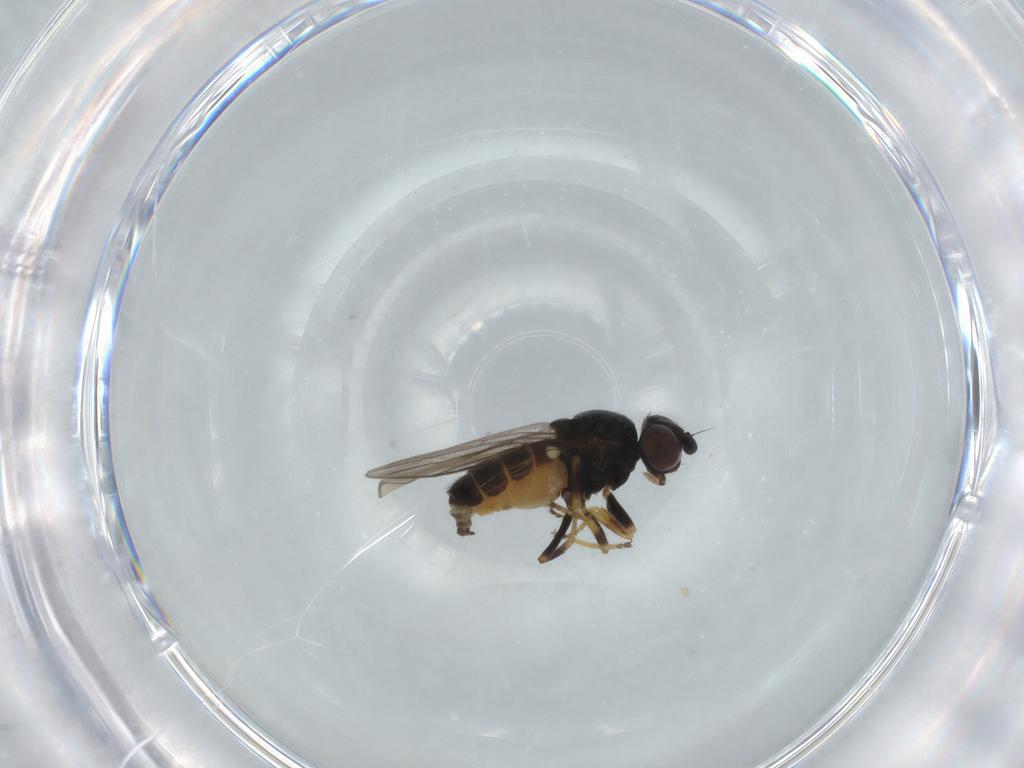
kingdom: Animalia
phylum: Arthropoda
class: Insecta
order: Diptera
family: Chloropidae
